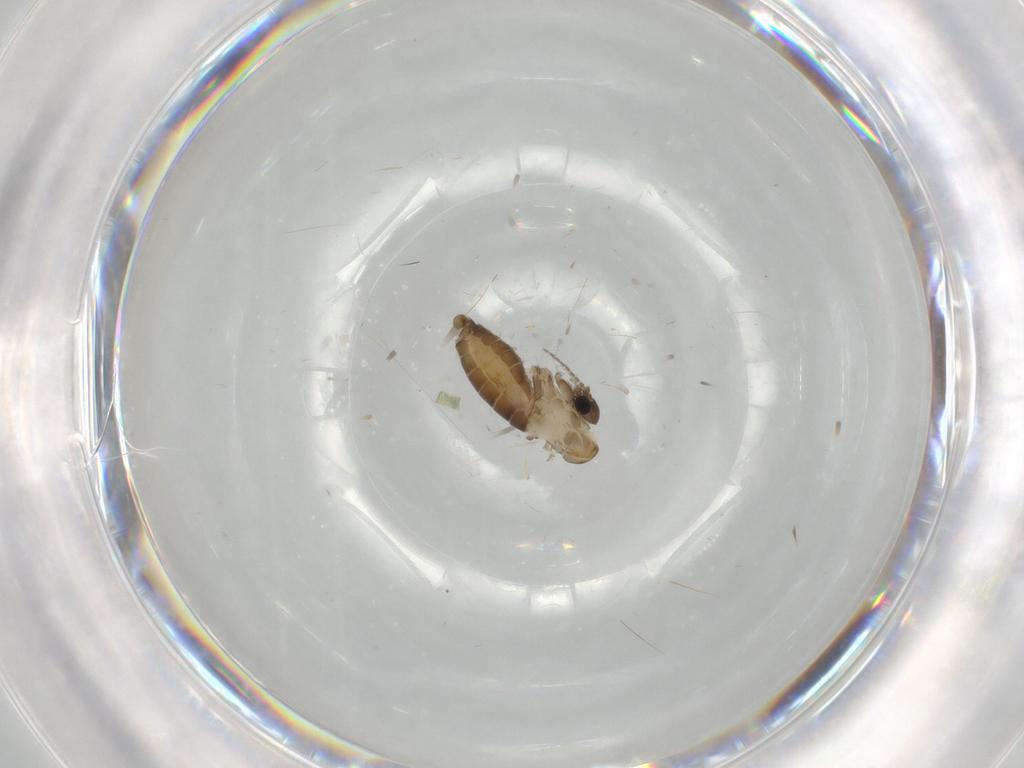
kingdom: Animalia
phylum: Arthropoda
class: Insecta
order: Diptera
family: Psychodidae
